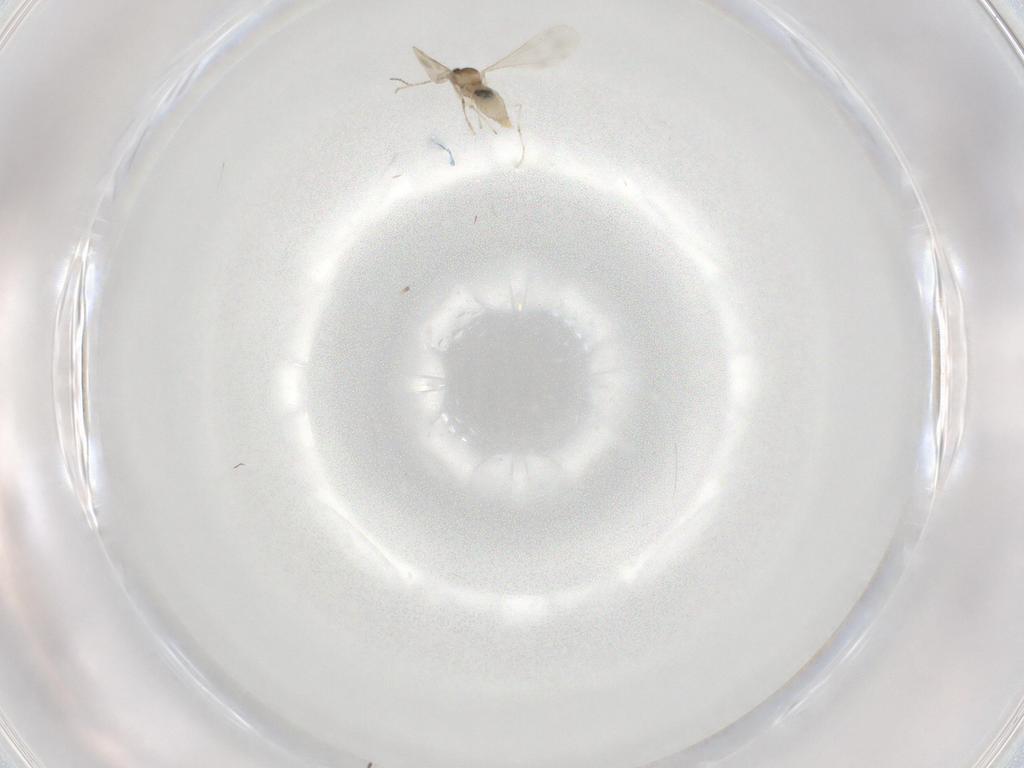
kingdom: Animalia
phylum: Arthropoda
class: Insecta
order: Diptera
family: Cecidomyiidae
